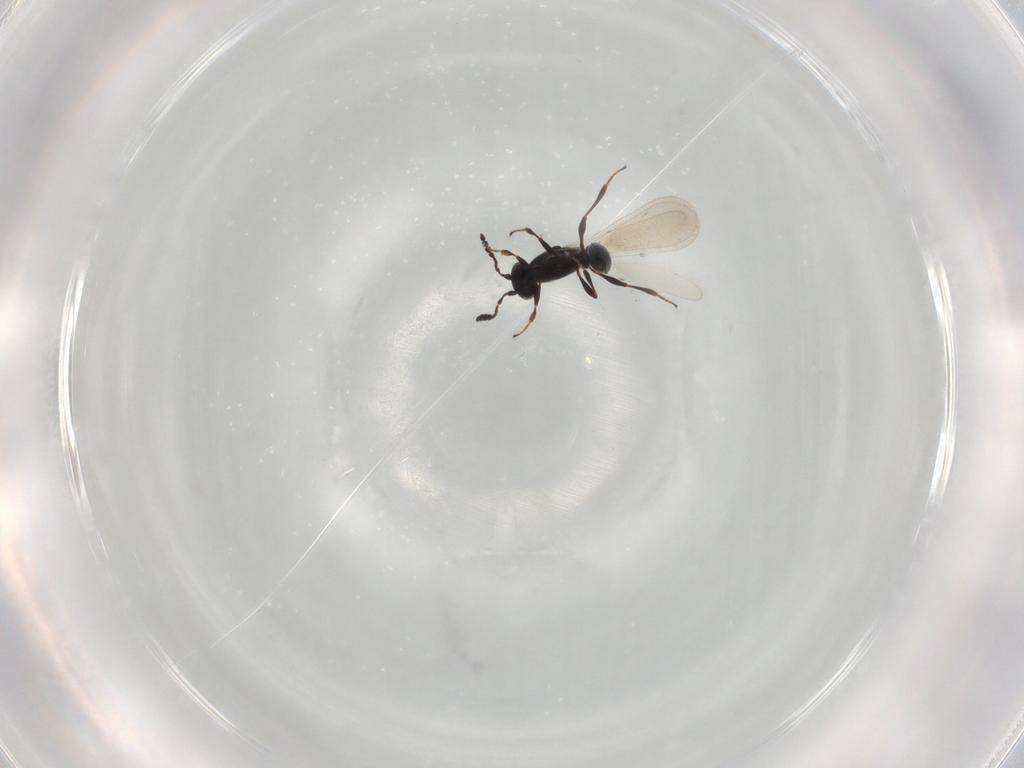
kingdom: Animalia
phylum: Arthropoda
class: Insecta
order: Hymenoptera
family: Platygastridae
